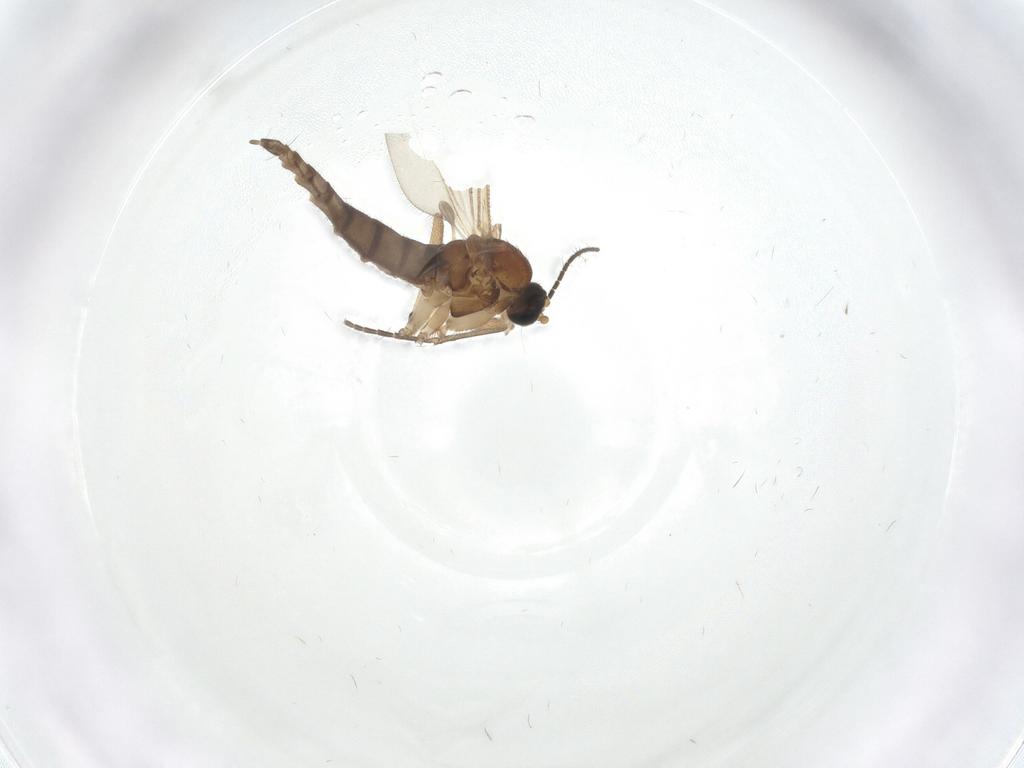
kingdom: Animalia
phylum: Arthropoda
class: Insecta
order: Diptera
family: Sciaridae
